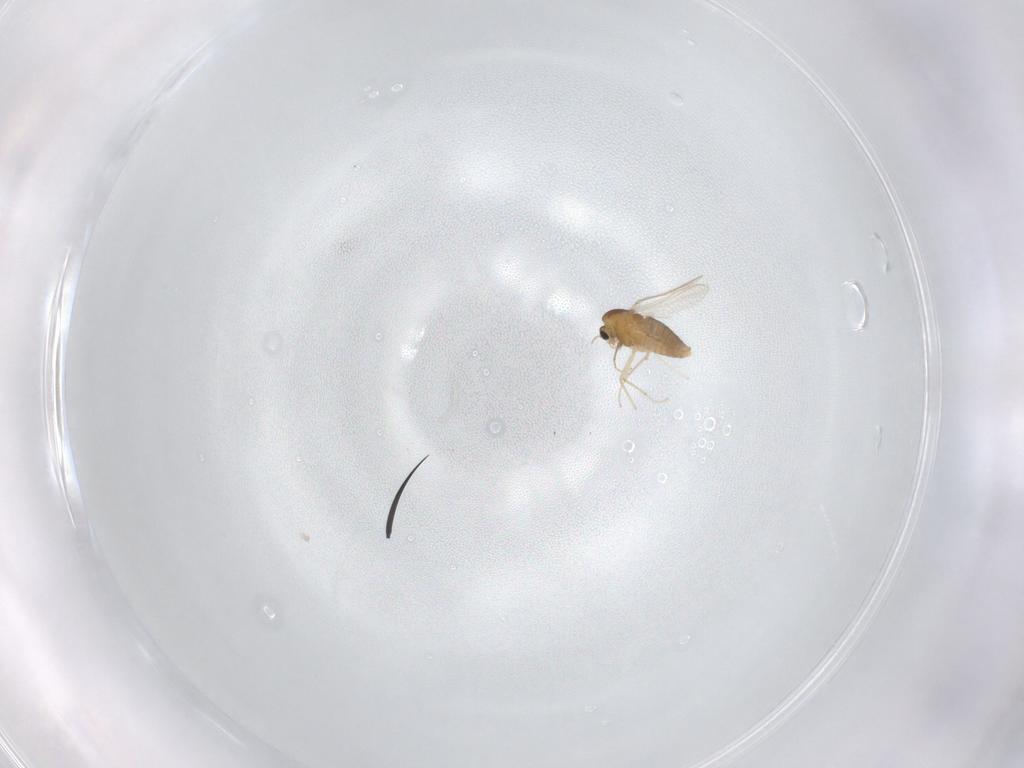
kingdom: Animalia
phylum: Arthropoda
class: Insecta
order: Diptera
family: Chironomidae
